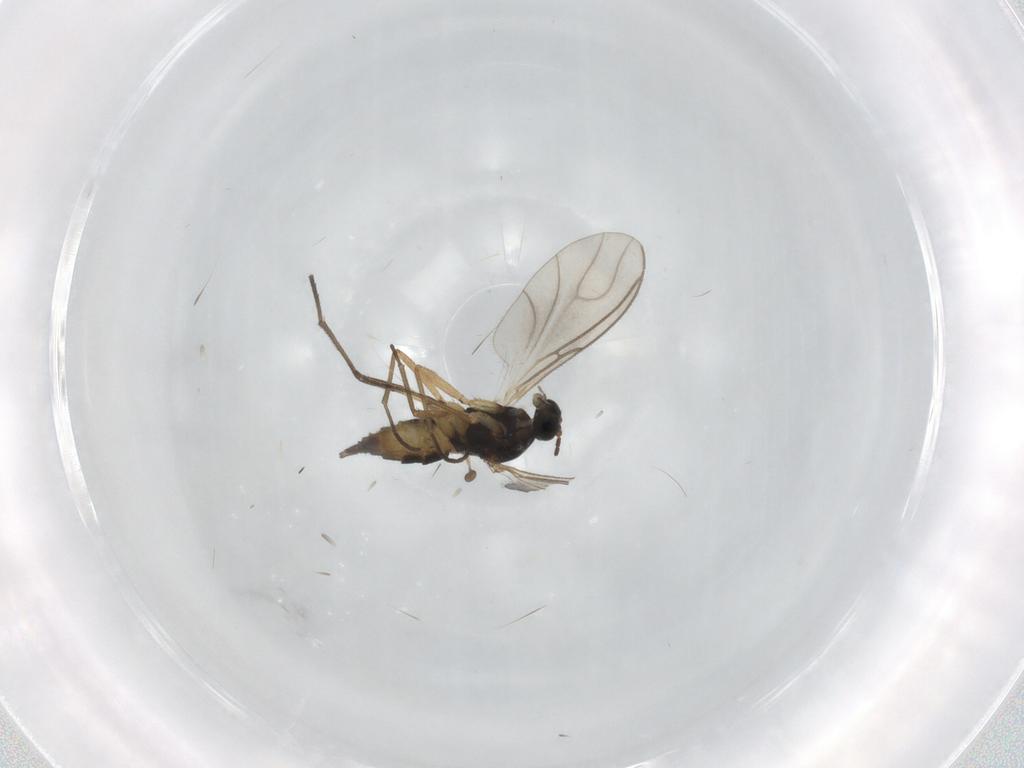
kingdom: Animalia
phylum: Arthropoda
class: Insecta
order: Diptera
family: Sciaridae
